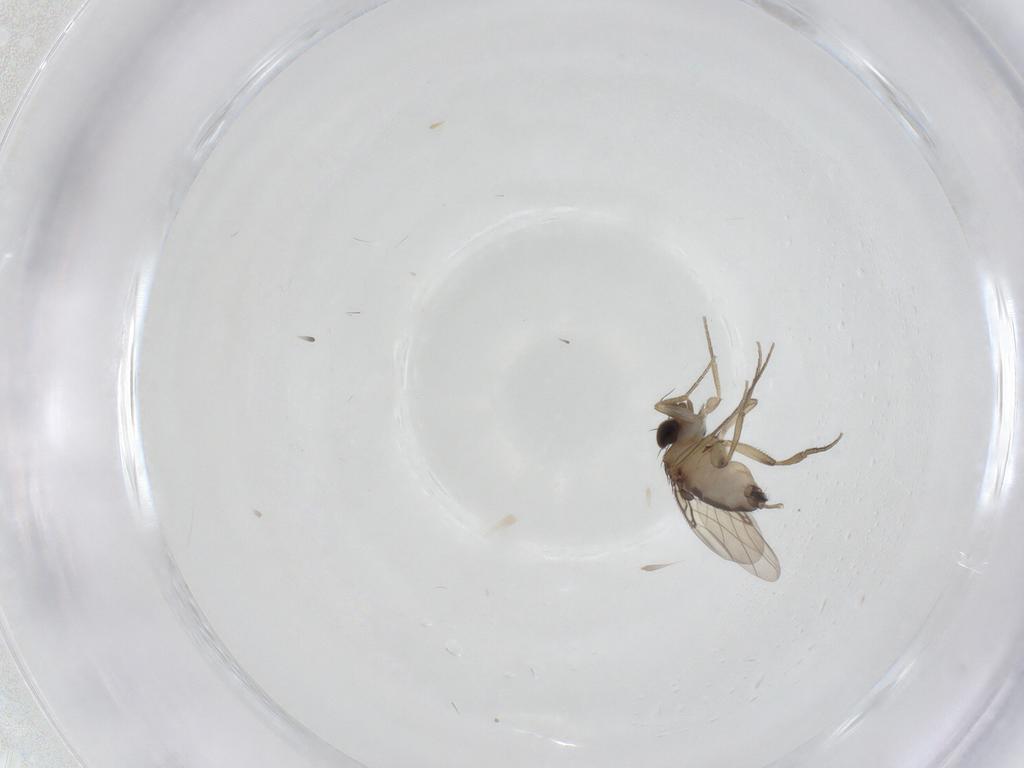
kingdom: Animalia
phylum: Arthropoda
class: Insecta
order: Diptera
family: Phoridae
